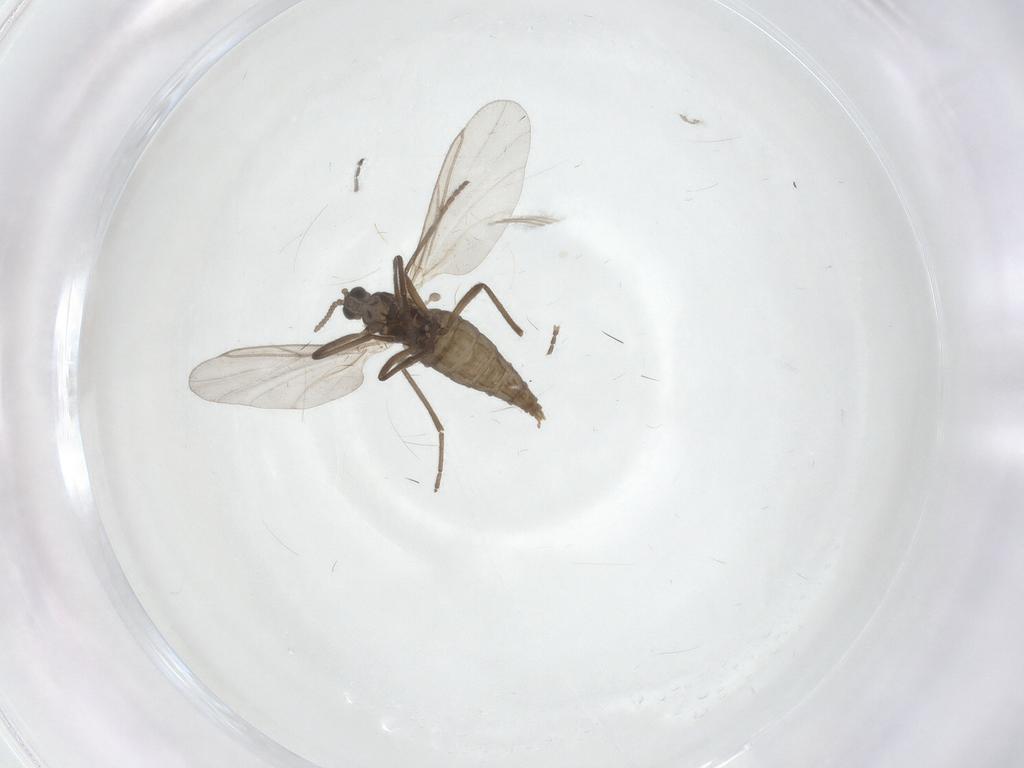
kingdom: Animalia
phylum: Arthropoda
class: Insecta
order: Diptera
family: Cecidomyiidae
